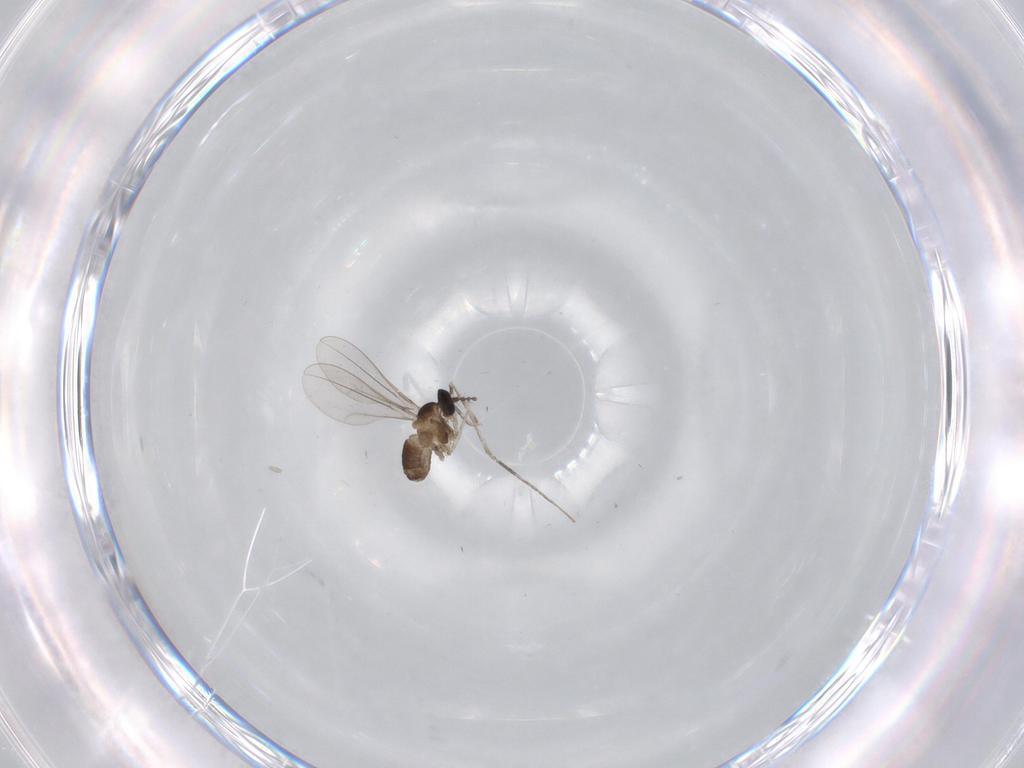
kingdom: Animalia
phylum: Arthropoda
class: Insecta
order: Diptera
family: Cecidomyiidae
